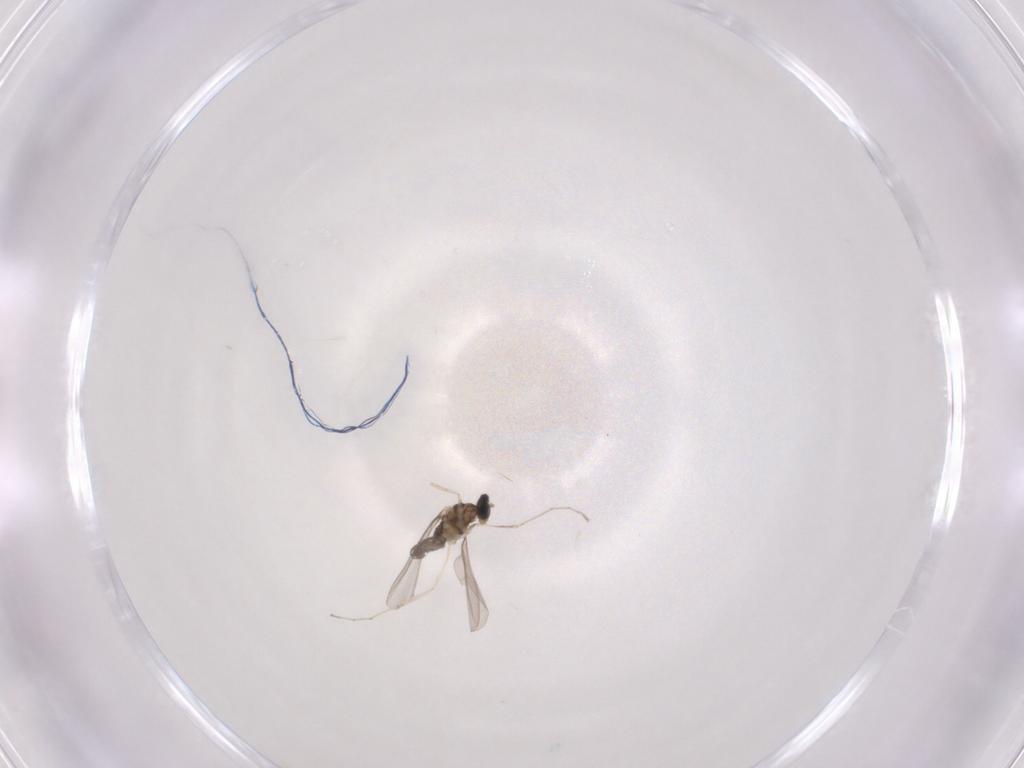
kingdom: Animalia
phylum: Arthropoda
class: Insecta
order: Diptera
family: Cecidomyiidae
